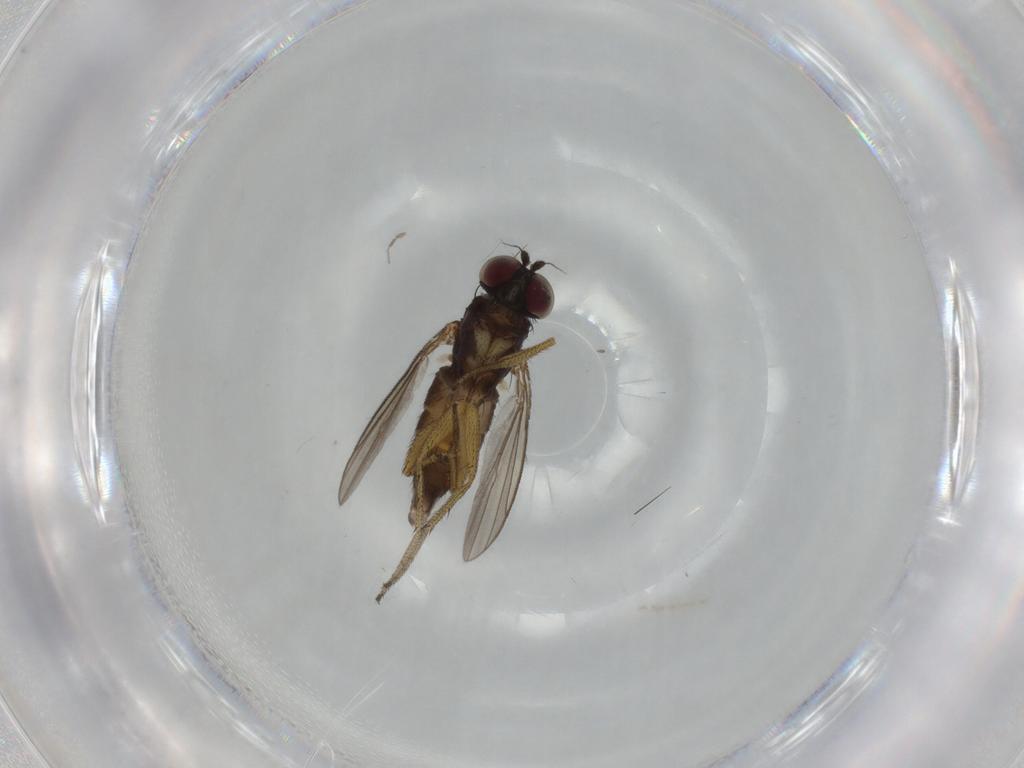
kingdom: Animalia
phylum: Arthropoda
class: Insecta
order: Diptera
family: Dolichopodidae
